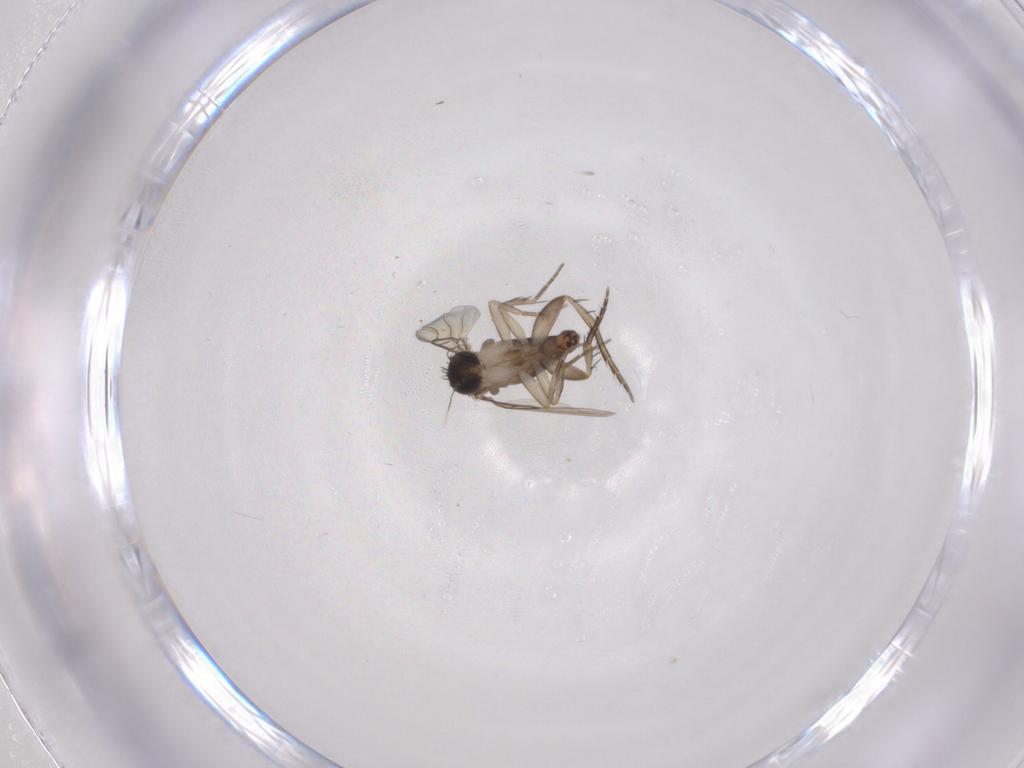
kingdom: Animalia
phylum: Arthropoda
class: Insecta
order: Diptera
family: Phoridae
